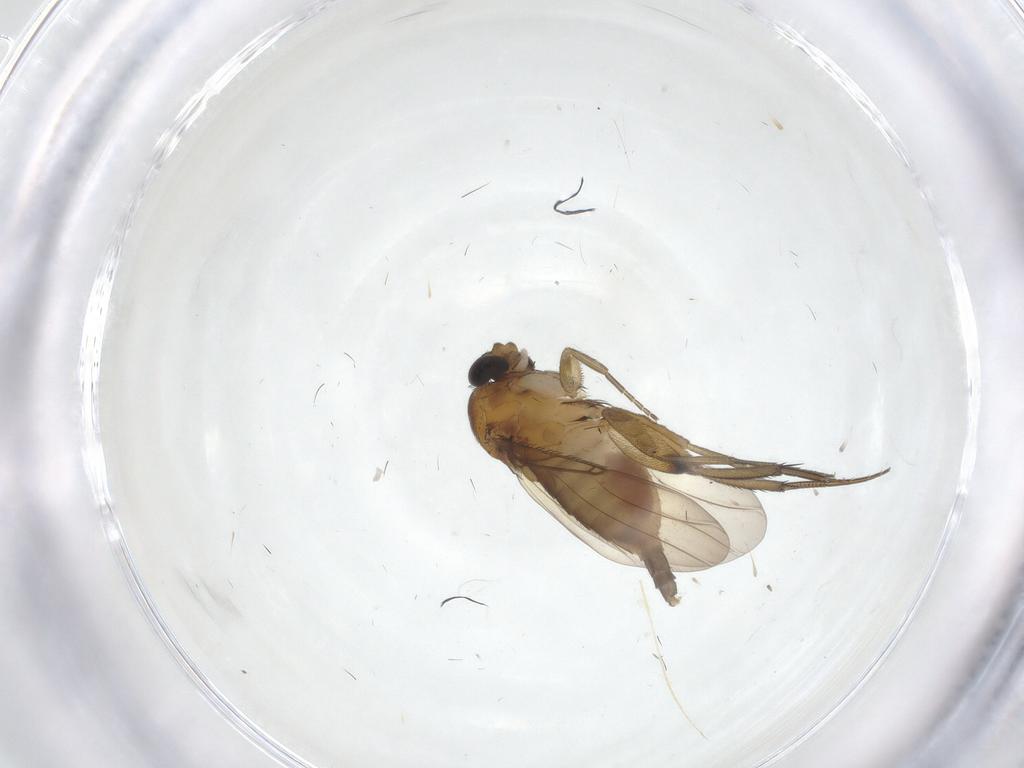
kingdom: Animalia
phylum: Arthropoda
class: Insecta
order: Diptera
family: Phoridae
